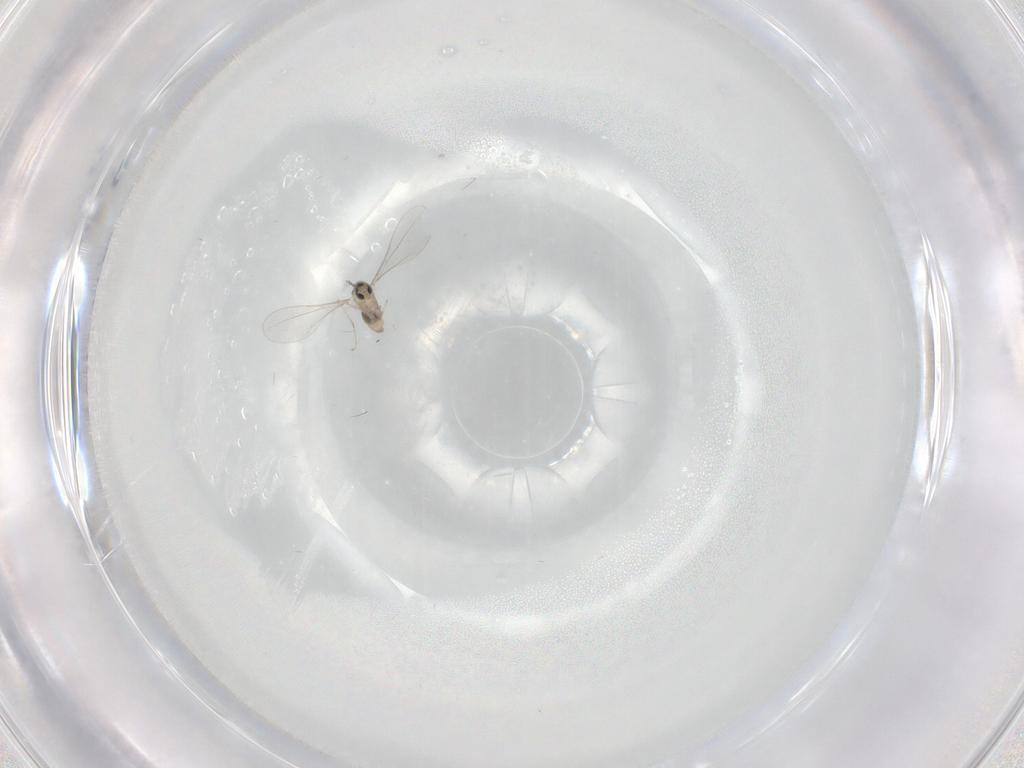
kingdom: Animalia
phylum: Arthropoda
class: Insecta
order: Diptera
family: Cecidomyiidae
